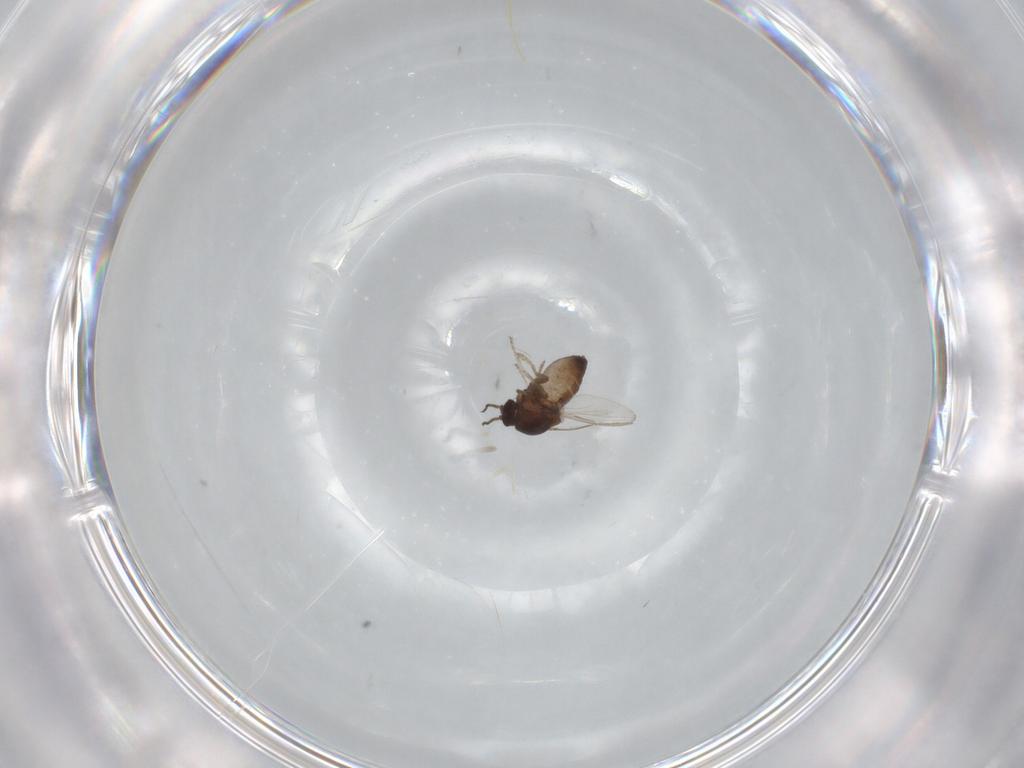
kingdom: Animalia
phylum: Arthropoda
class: Insecta
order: Diptera
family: Ceratopogonidae
